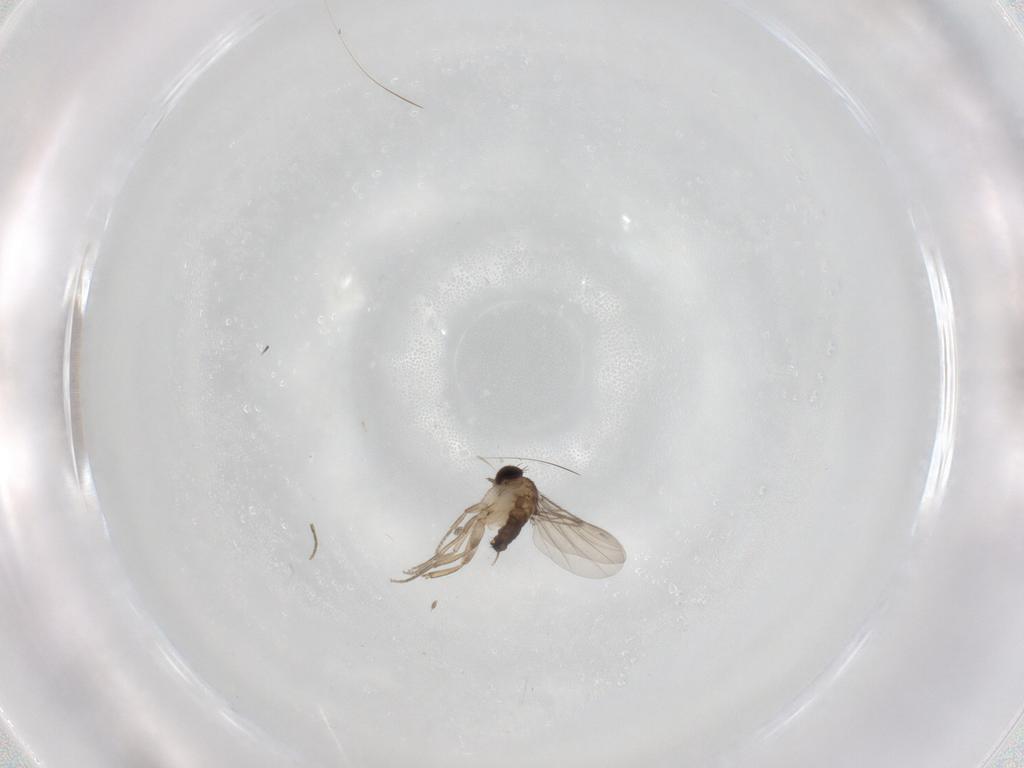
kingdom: Animalia
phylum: Arthropoda
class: Insecta
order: Diptera
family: Phoridae
